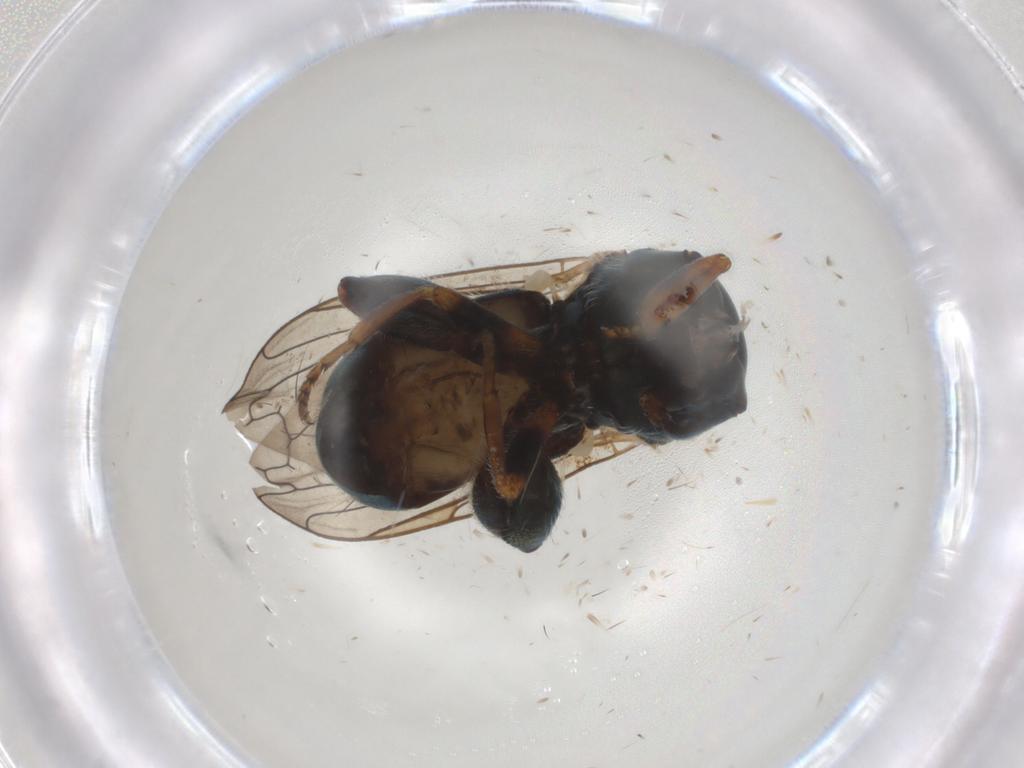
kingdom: Animalia
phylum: Arthropoda
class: Insecta
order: Diptera
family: Syrphidae
